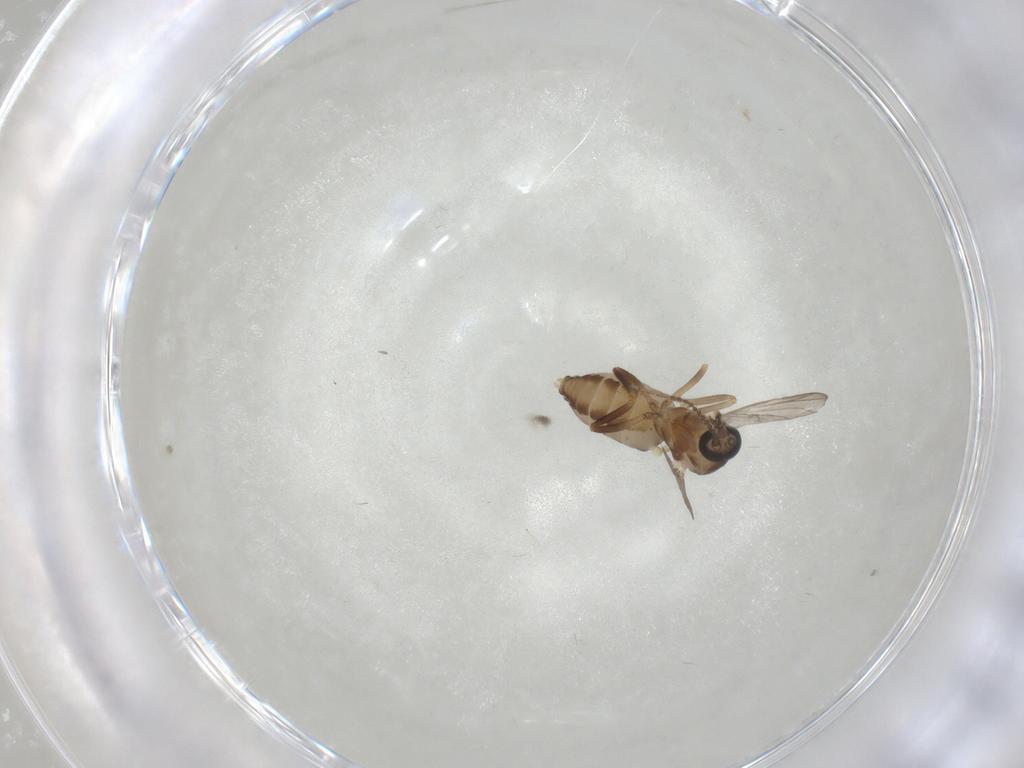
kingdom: Animalia
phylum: Arthropoda
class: Insecta
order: Diptera
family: Ceratopogonidae
